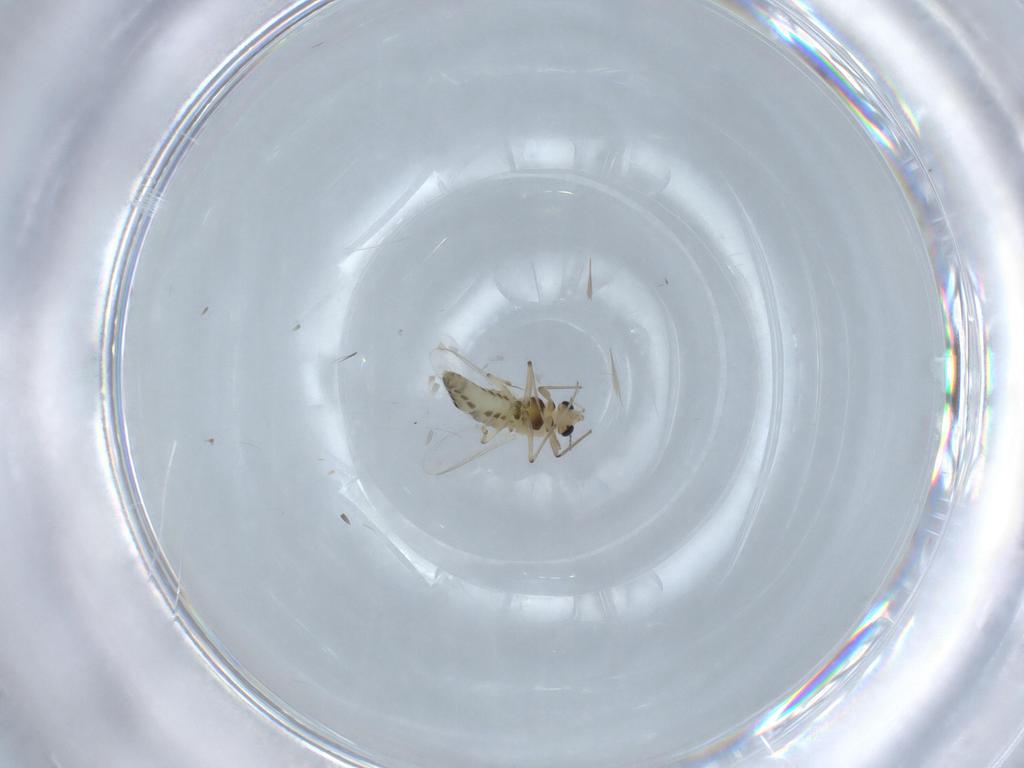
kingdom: Animalia
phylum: Arthropoda
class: Insecta
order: Diptera
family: Chironomidae
